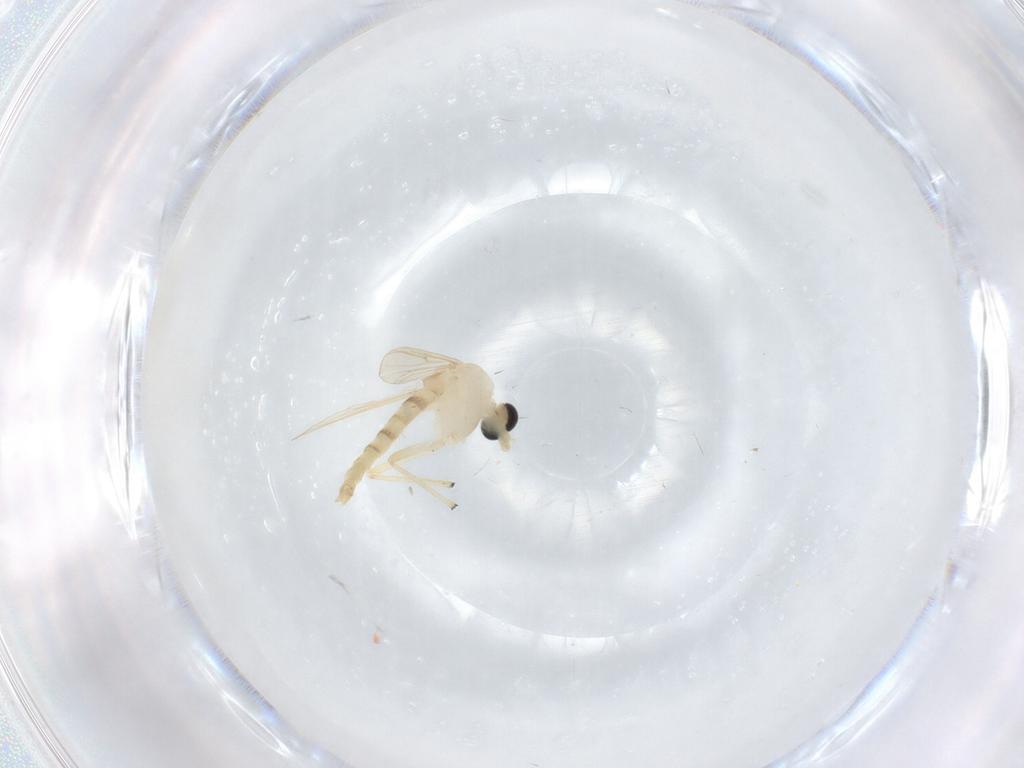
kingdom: Animalia
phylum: Arthropoda
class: Insecta
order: Diptera
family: Chironomidae
